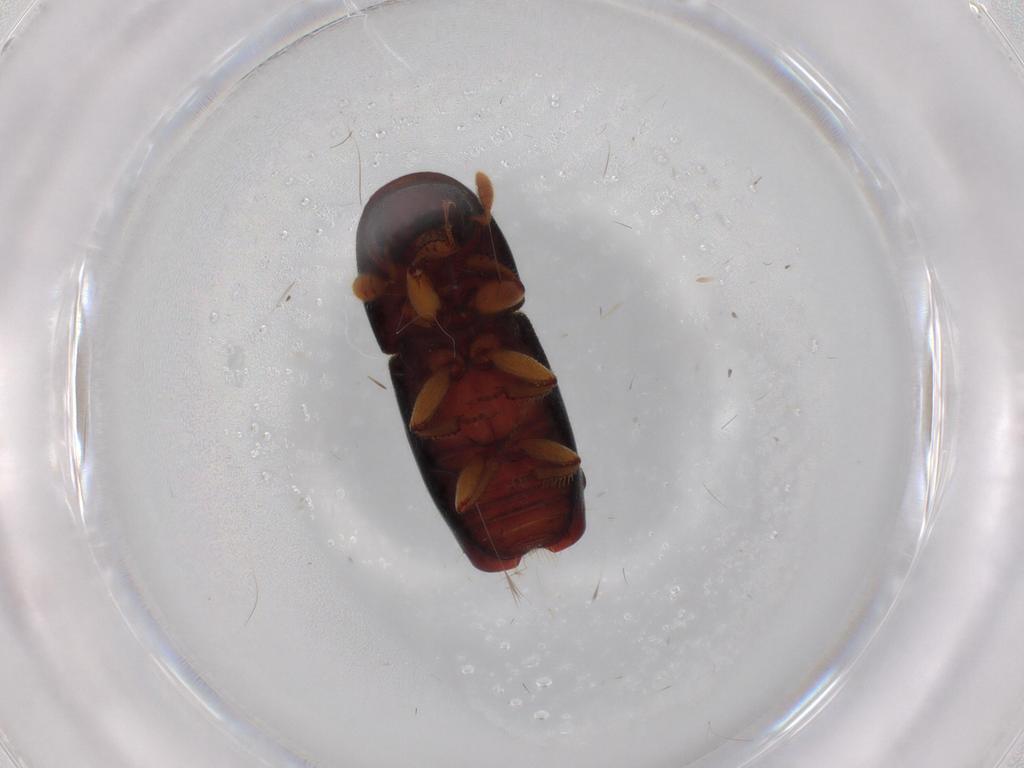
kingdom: Animalia
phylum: Arthropoda
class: Insecta
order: Coleoptera
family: Curculionidae
